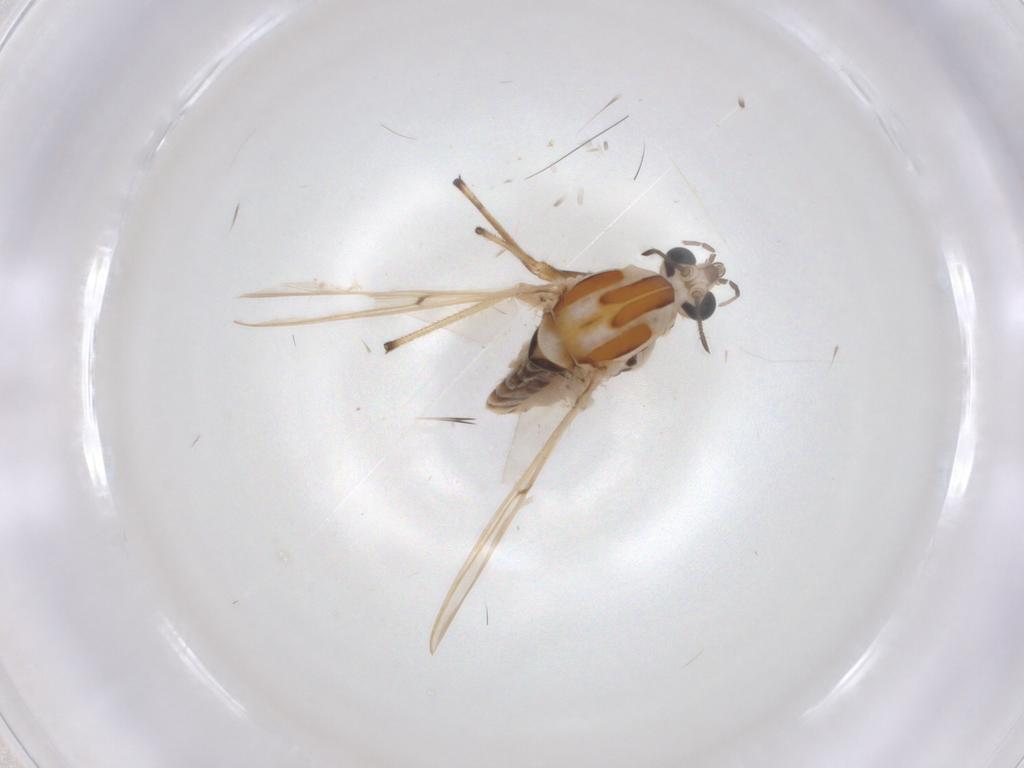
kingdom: Animalia
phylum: Arthropoda
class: Insecta
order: Diptera
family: Chironomidae
